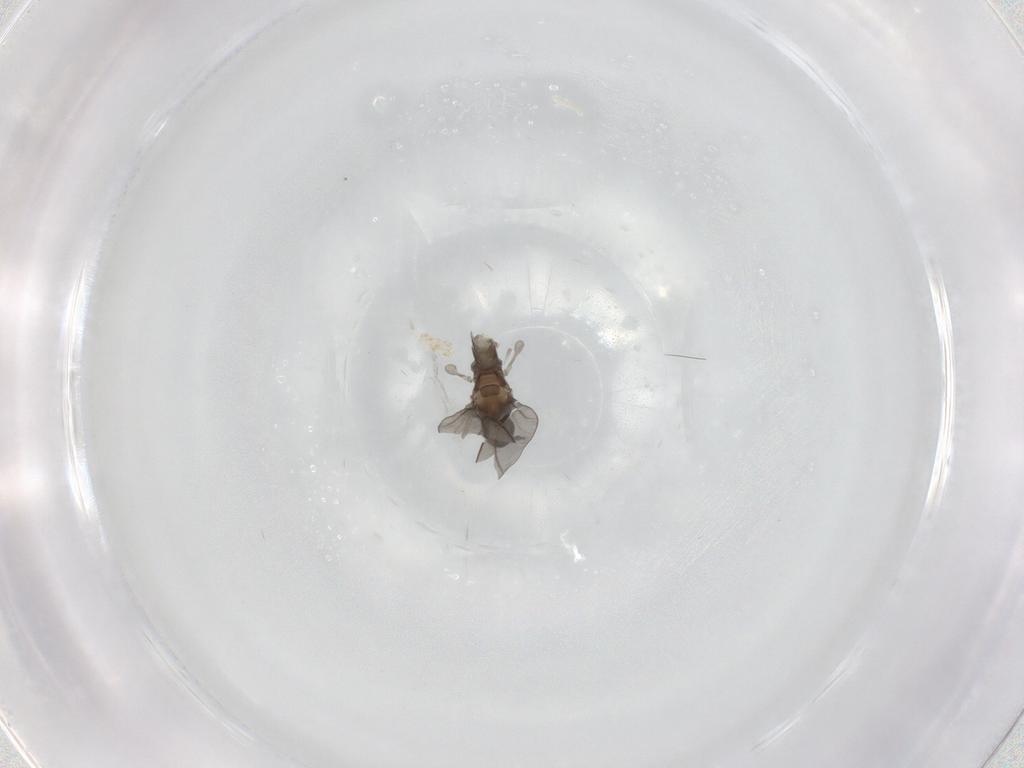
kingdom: Animalia
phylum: Arthropoda
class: Insecta
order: Diptera
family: Cecidomyiidae
